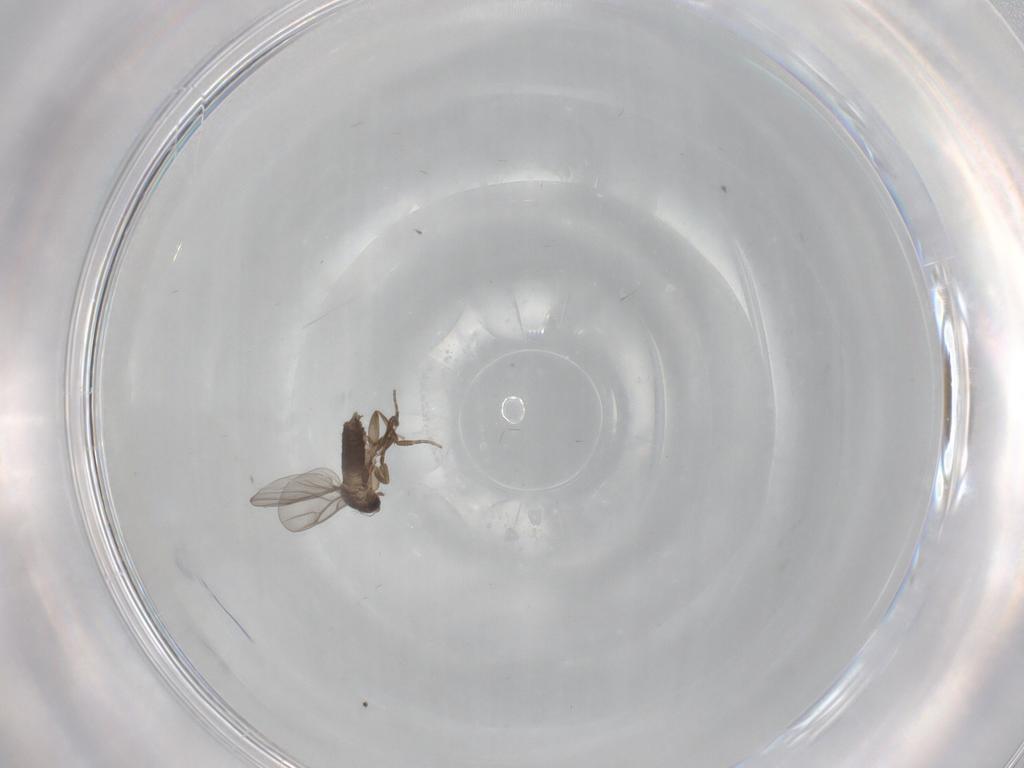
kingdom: Animalia
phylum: Arthropoda
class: Insecta
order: Diptera
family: Phoridae
